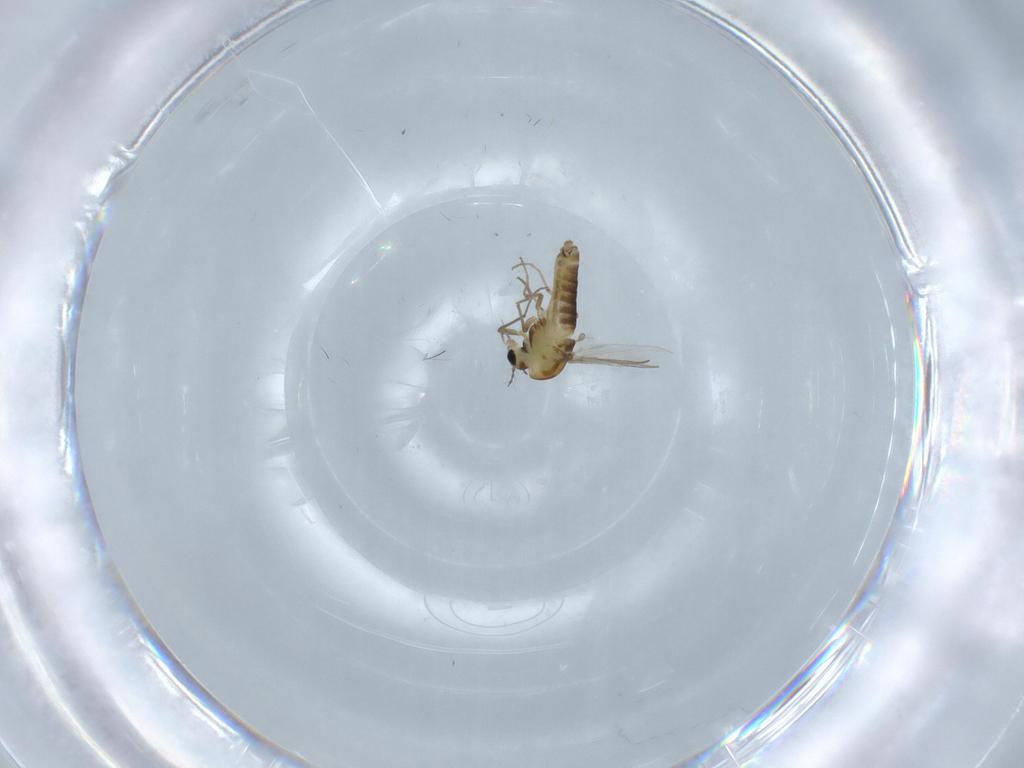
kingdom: Animalia
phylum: Arthropoda
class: Insecta
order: Diptera
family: Chironomidae
